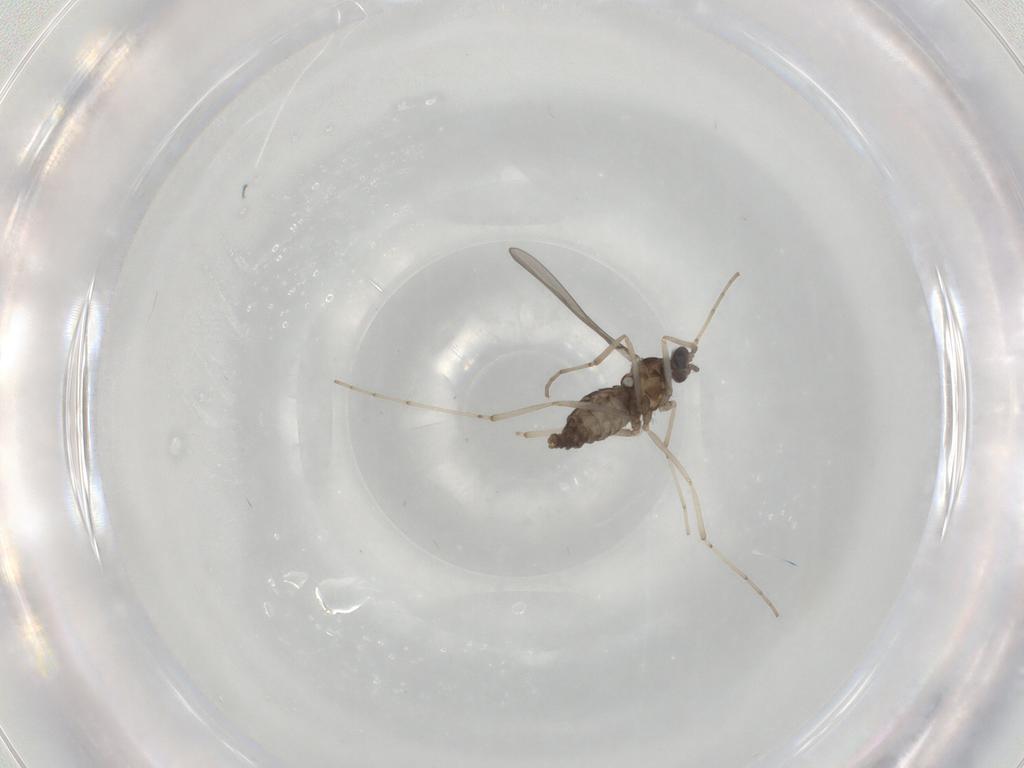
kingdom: Animalia
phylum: Arthropoda
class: Insecta
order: Diptera
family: Cecidomyiidae
